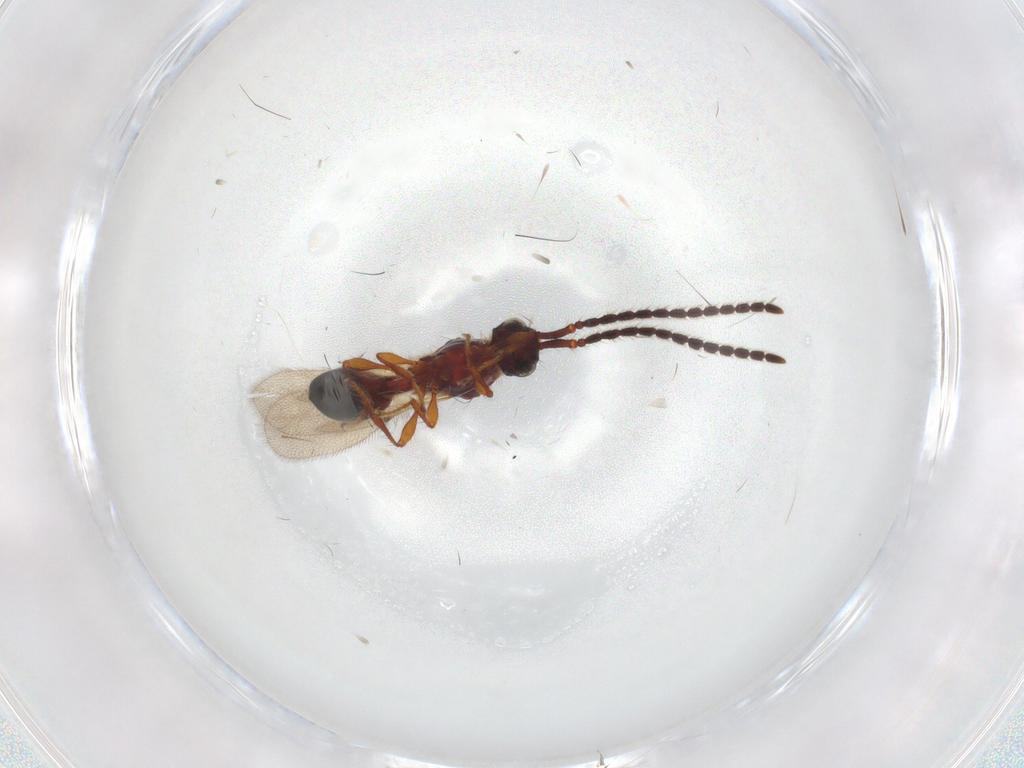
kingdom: Animalia
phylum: Arthropoda
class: Insecta
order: Hymenoptera
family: Diapriidae
